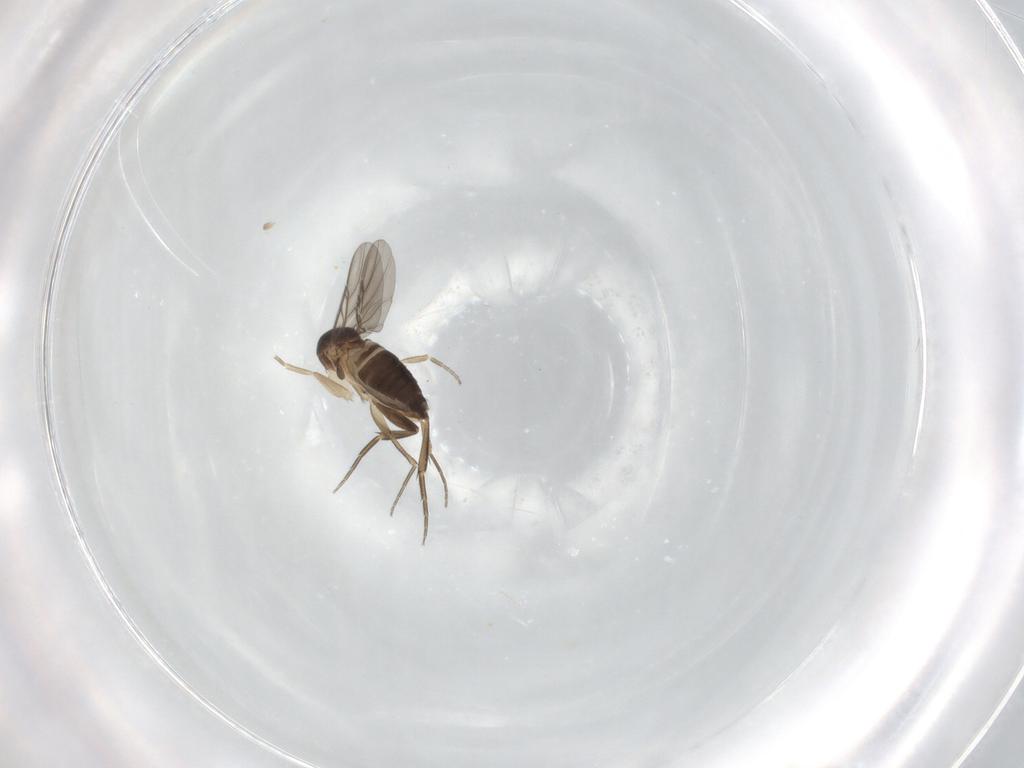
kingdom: Animalia
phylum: Arthropoda
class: Insecta
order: Diptera
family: Phoridae
